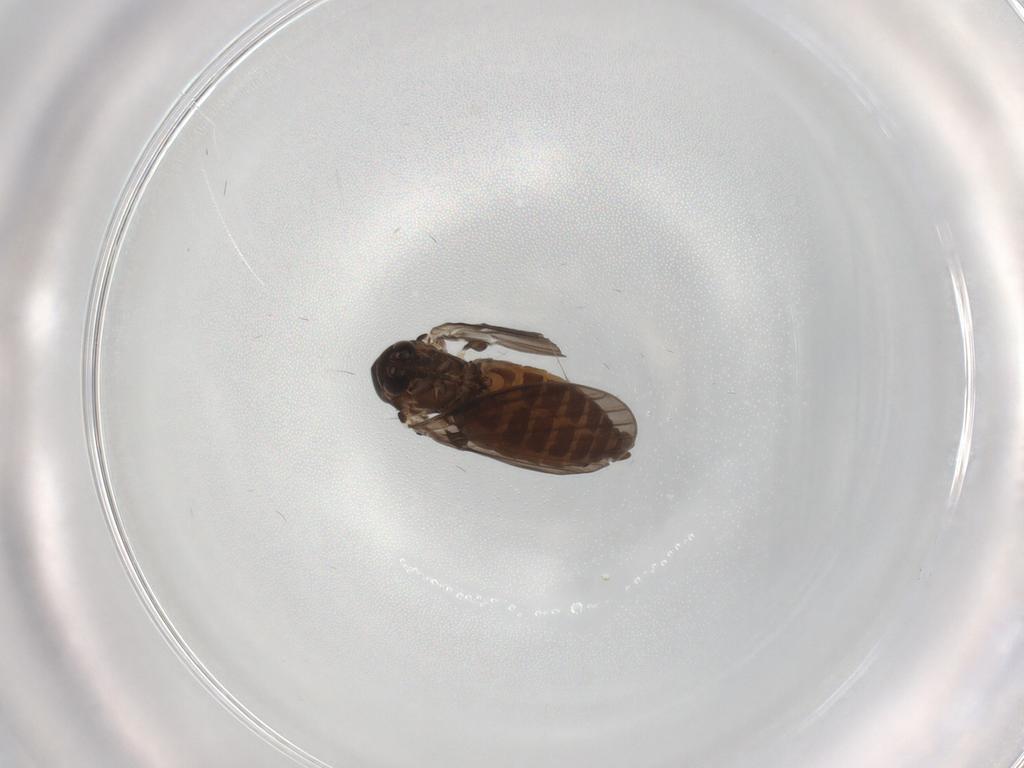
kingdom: Animalia
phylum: Arthropoda
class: Insecta
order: Diptera
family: Psychodidae
